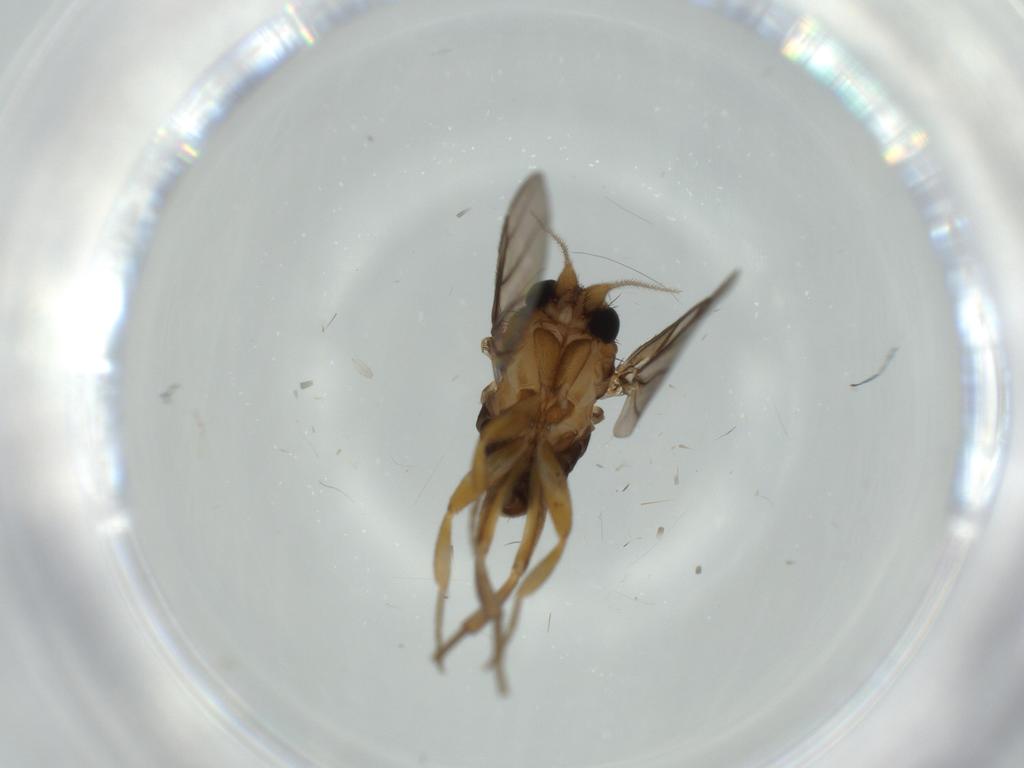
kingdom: Animalia
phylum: Arthropoda
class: Insecta
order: Diptera
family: Phoridae
